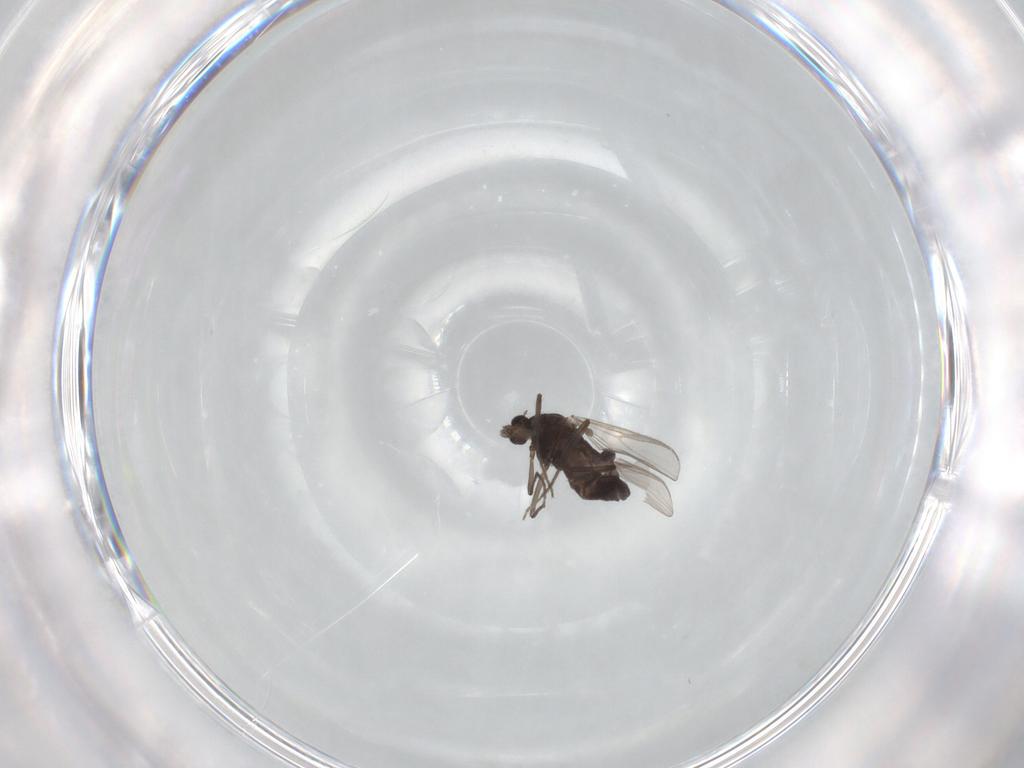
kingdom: Animalia
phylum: Arthropoda
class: Insecta
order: Diptera
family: Chironomidae
